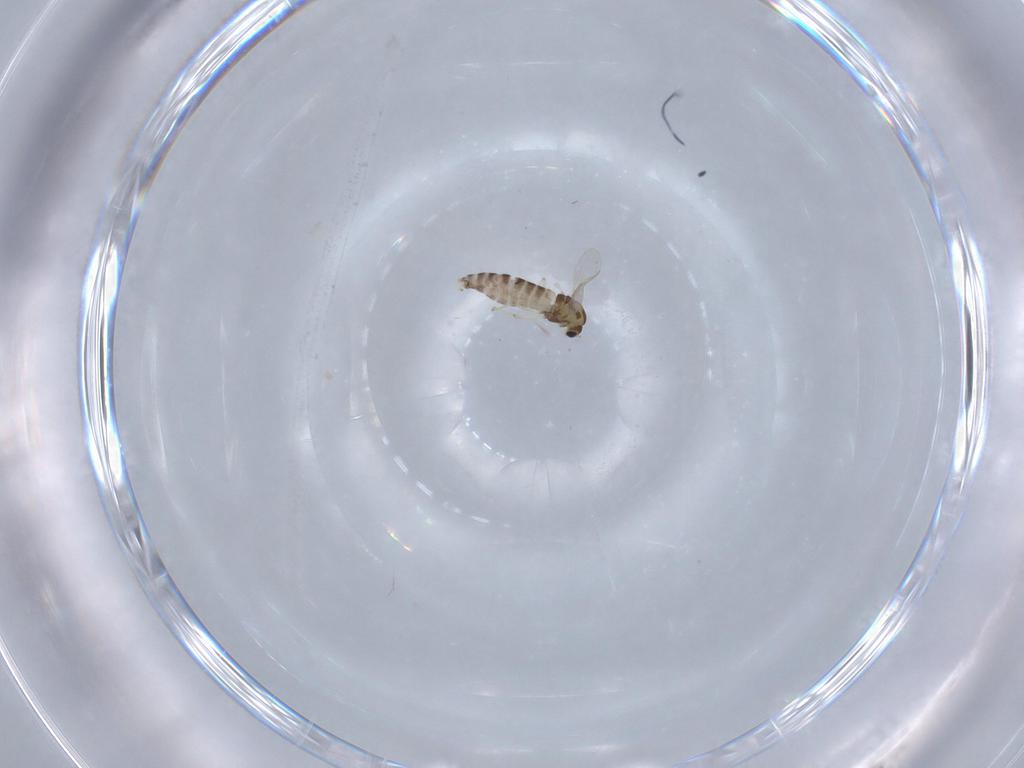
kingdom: Animalia
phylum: Arthropoda
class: Insecta
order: Diptera
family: Chironomidae
